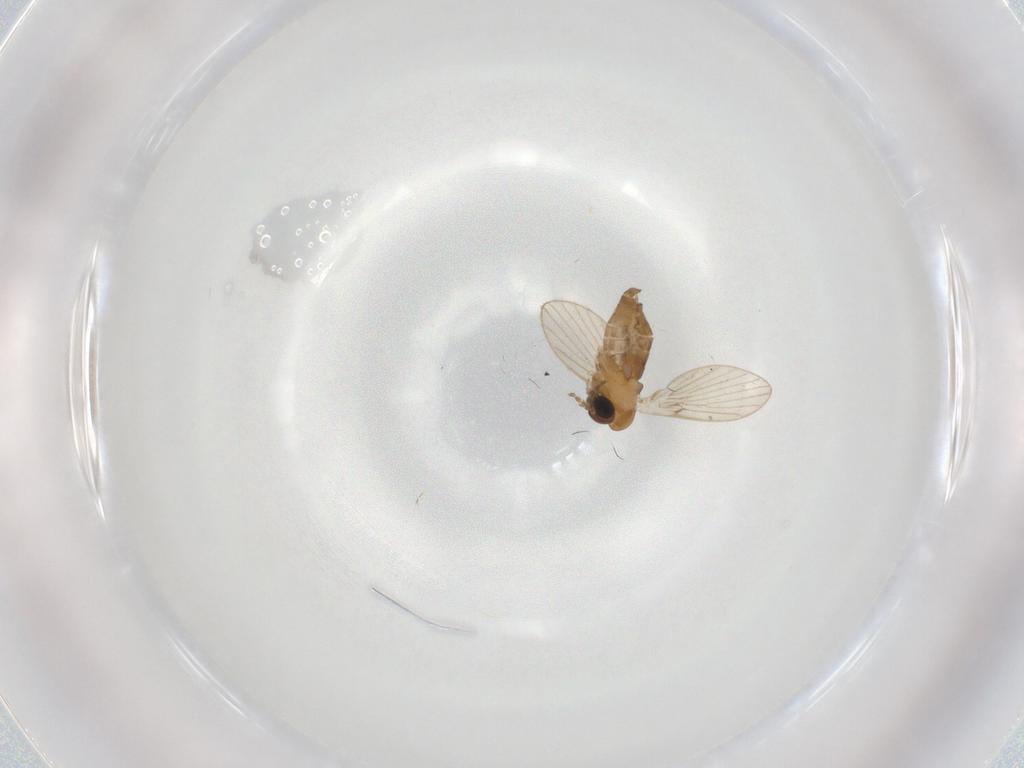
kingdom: Animalia
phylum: Arthropoda
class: Insecta
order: Diptera
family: Psychodidae
